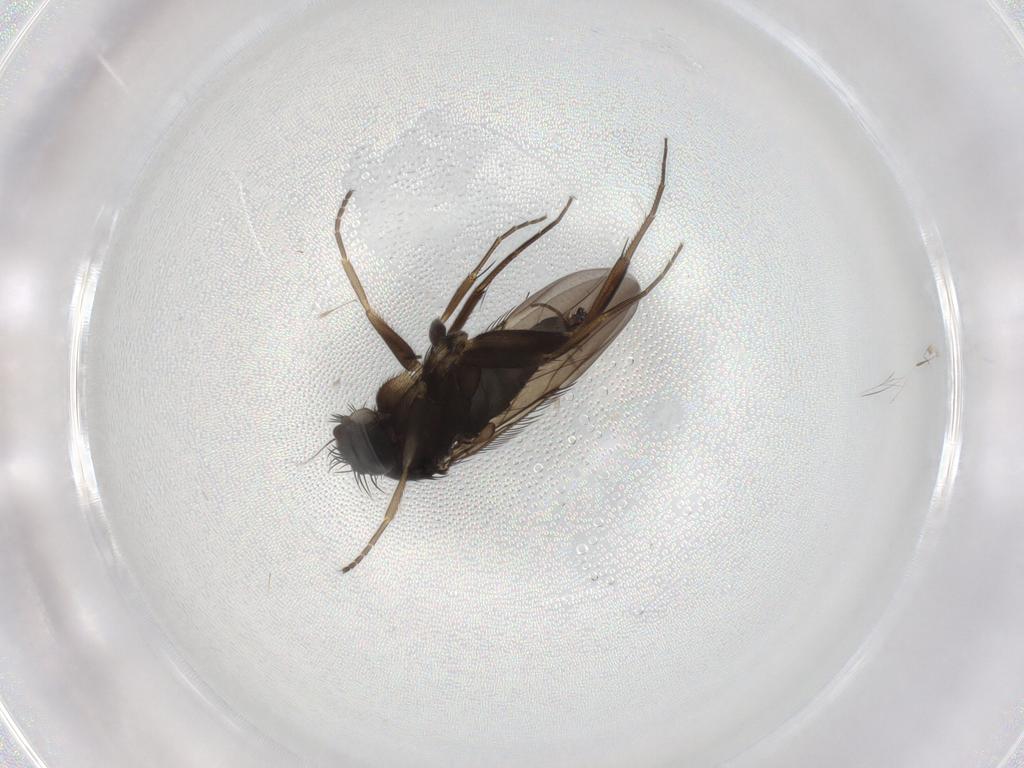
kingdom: Animalia
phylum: Arthropoda
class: Insecta
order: Diptera
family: Phoridae
